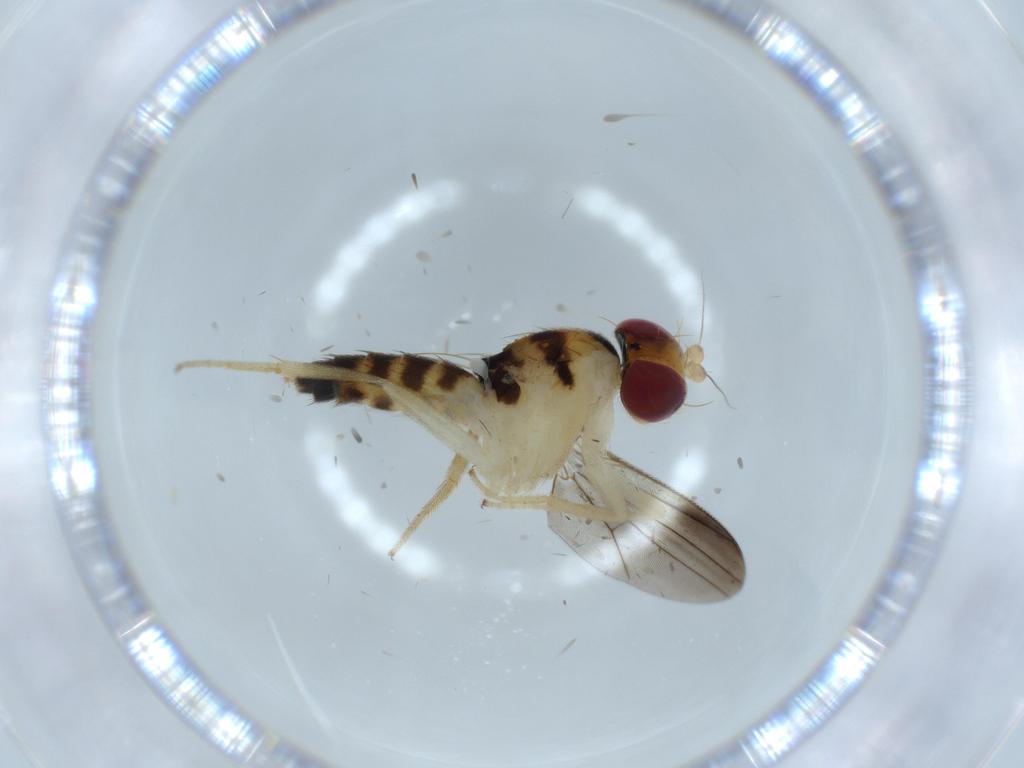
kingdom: Animalia
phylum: Arthropoda
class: Insecta
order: Diptera
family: Clusiidae
